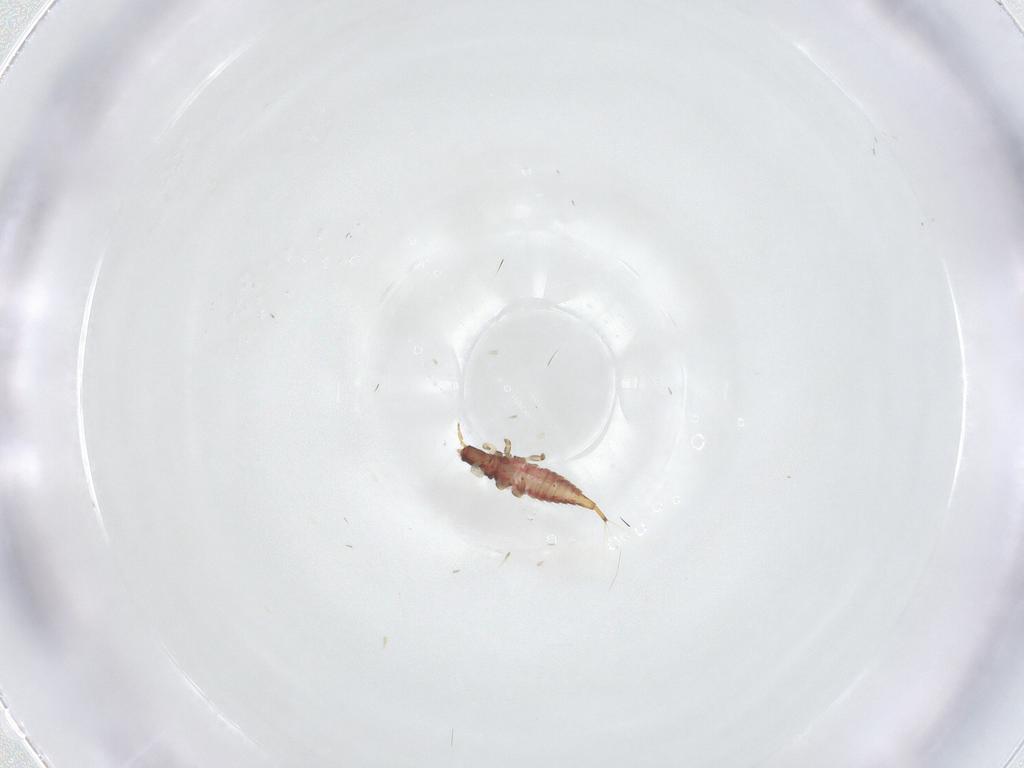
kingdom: Animalia
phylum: Arthropoda
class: Insecta
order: Thysanoptera
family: Phlaeothripidae
